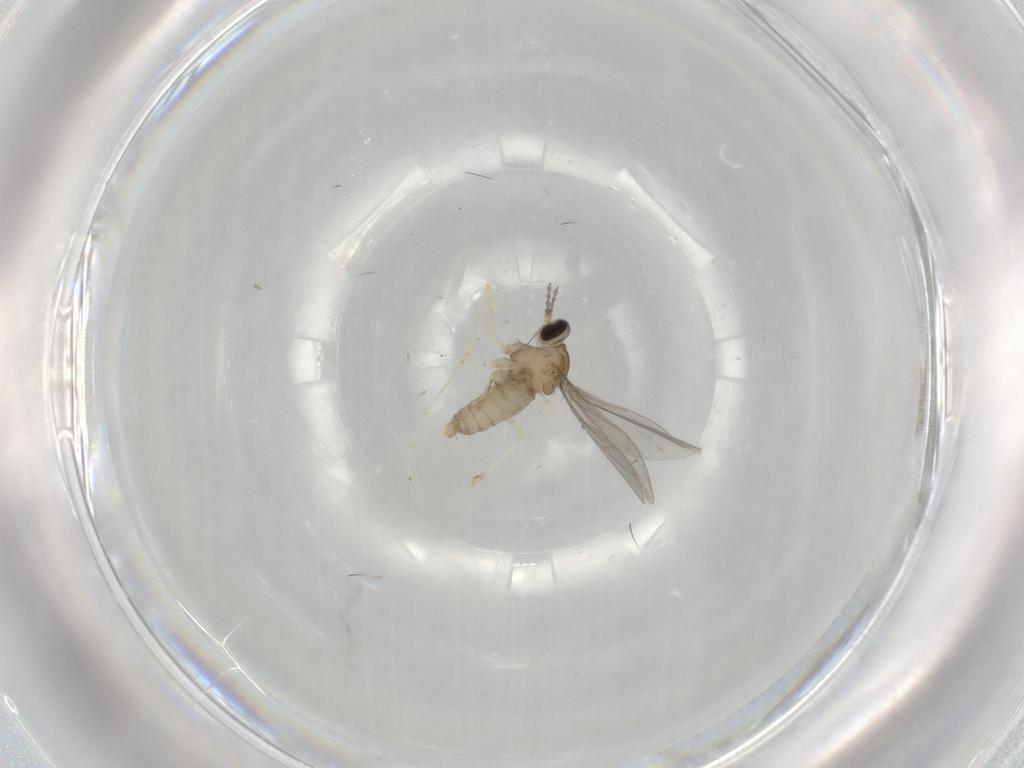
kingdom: Animalia
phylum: Arthropoda
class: Insecta
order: Diptera
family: Cecidomyiidae
